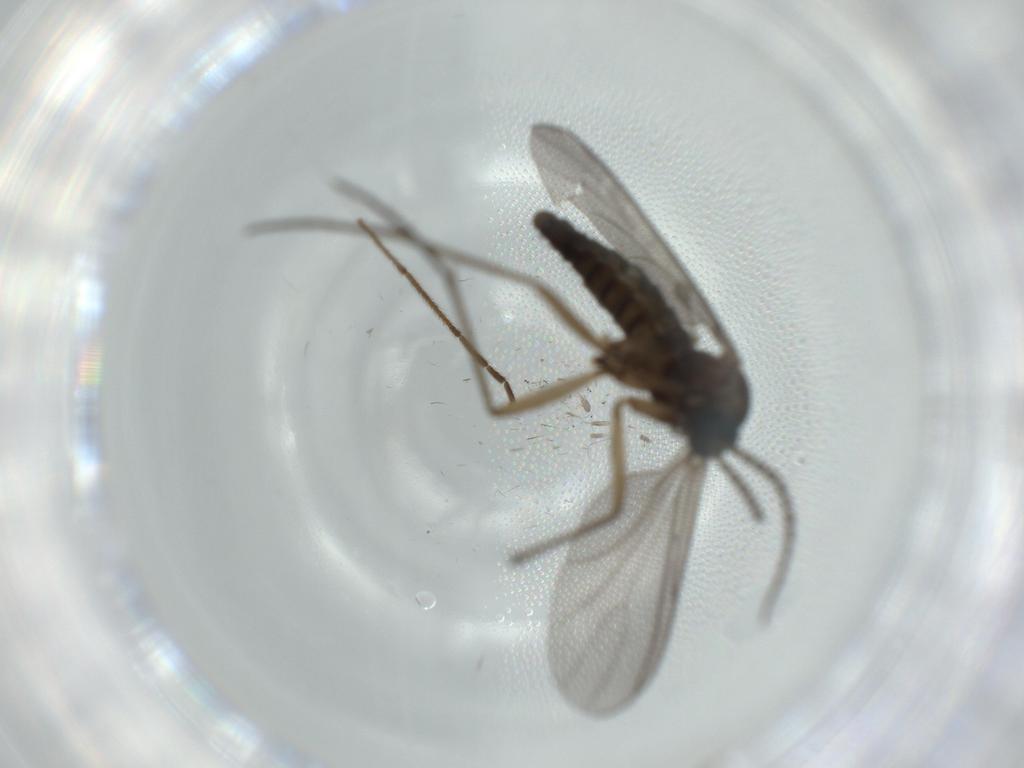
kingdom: Animalia
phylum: Arthropoda
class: Insecta
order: Diptera
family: Sciaridae
